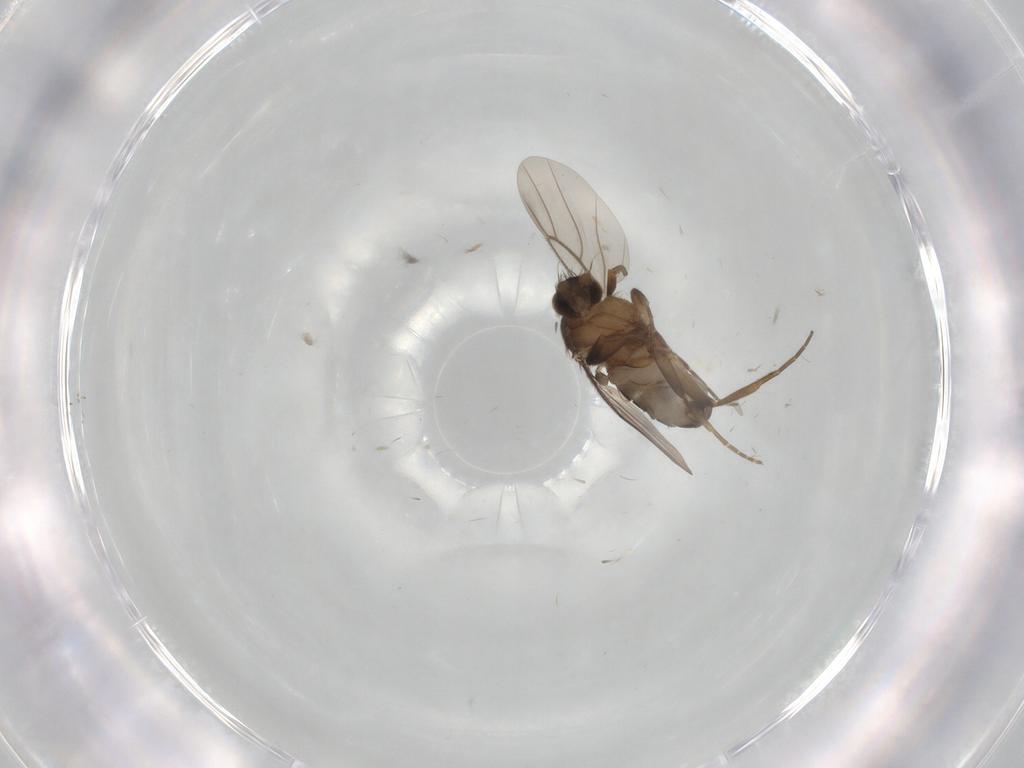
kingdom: Animalia
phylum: Arthropoda
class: Insecta
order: Diptera
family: Phoridae
